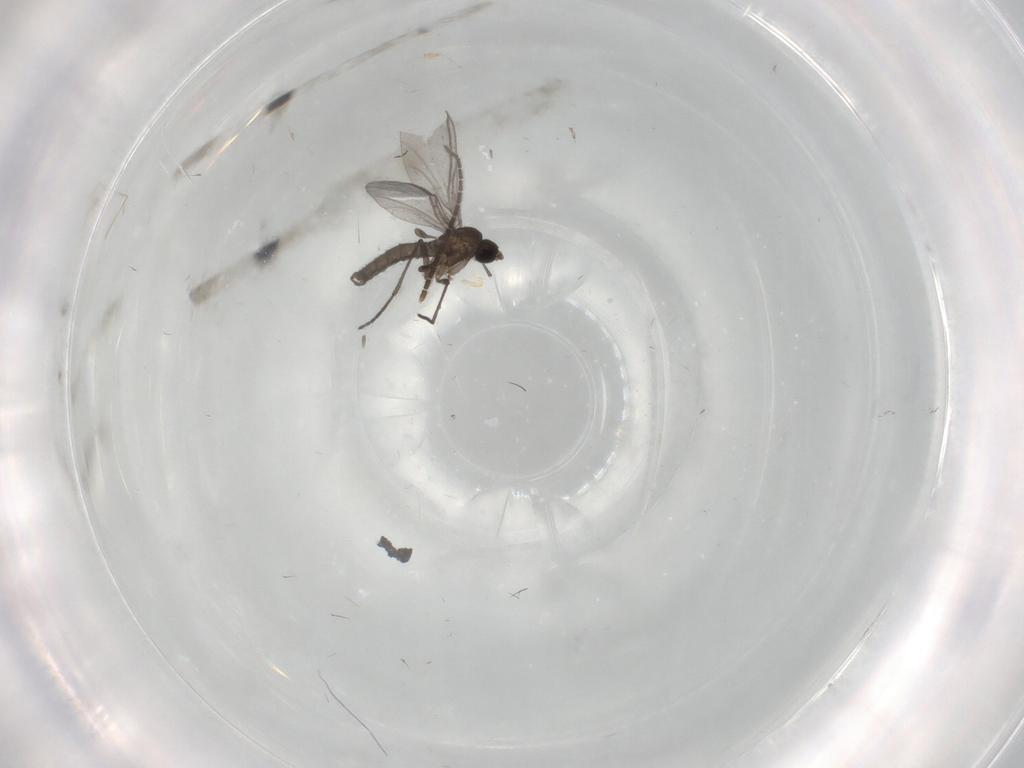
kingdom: Animalia
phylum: Arthropoda
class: Insecta
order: Diptera
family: Sciaridae
